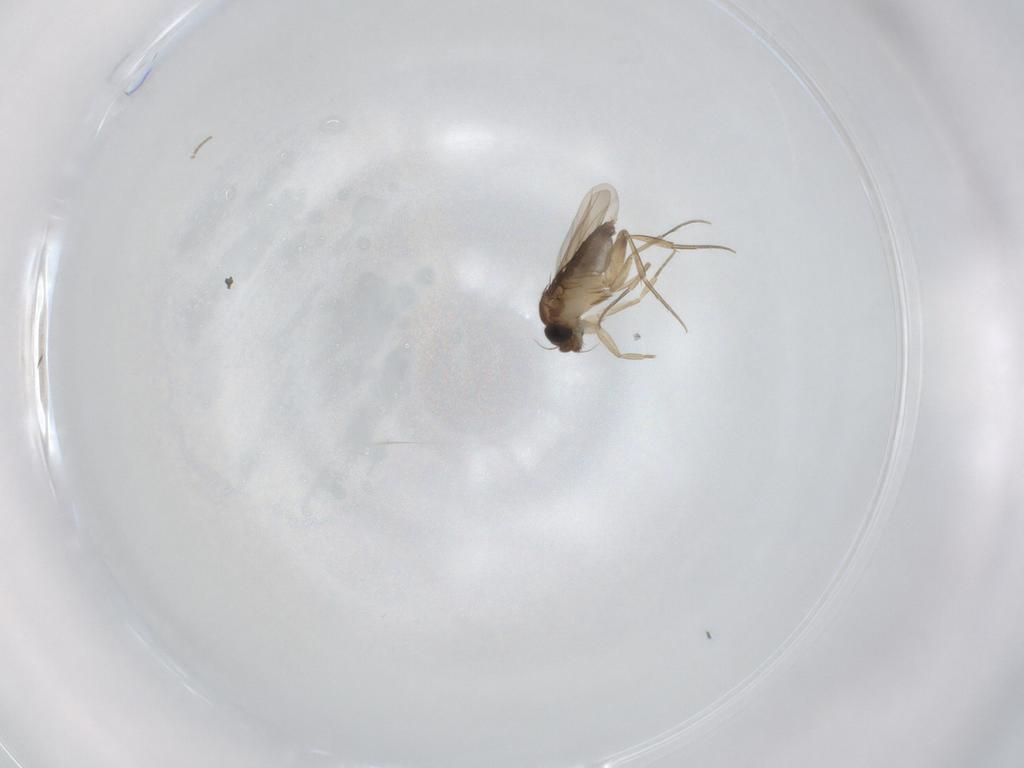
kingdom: Animalia
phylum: Arthropoda
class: Insecta
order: Diptera
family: Phoridae
